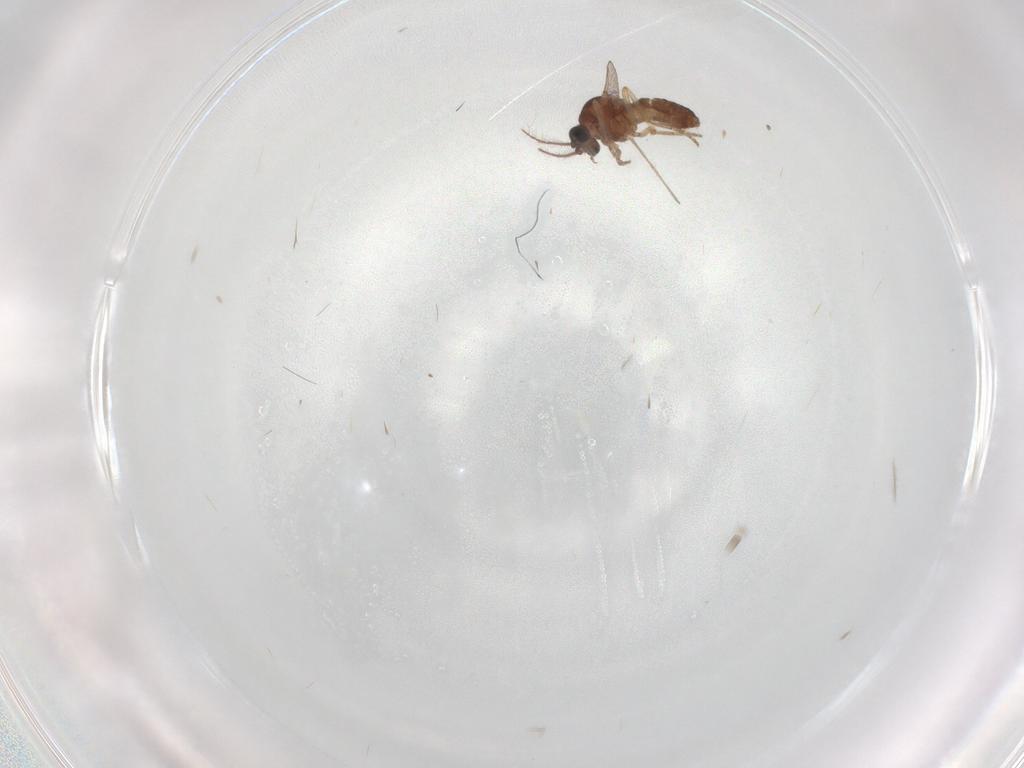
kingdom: Animalia
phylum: Arthropoda
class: Insecta
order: Diptera
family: Ceratopogonidae
